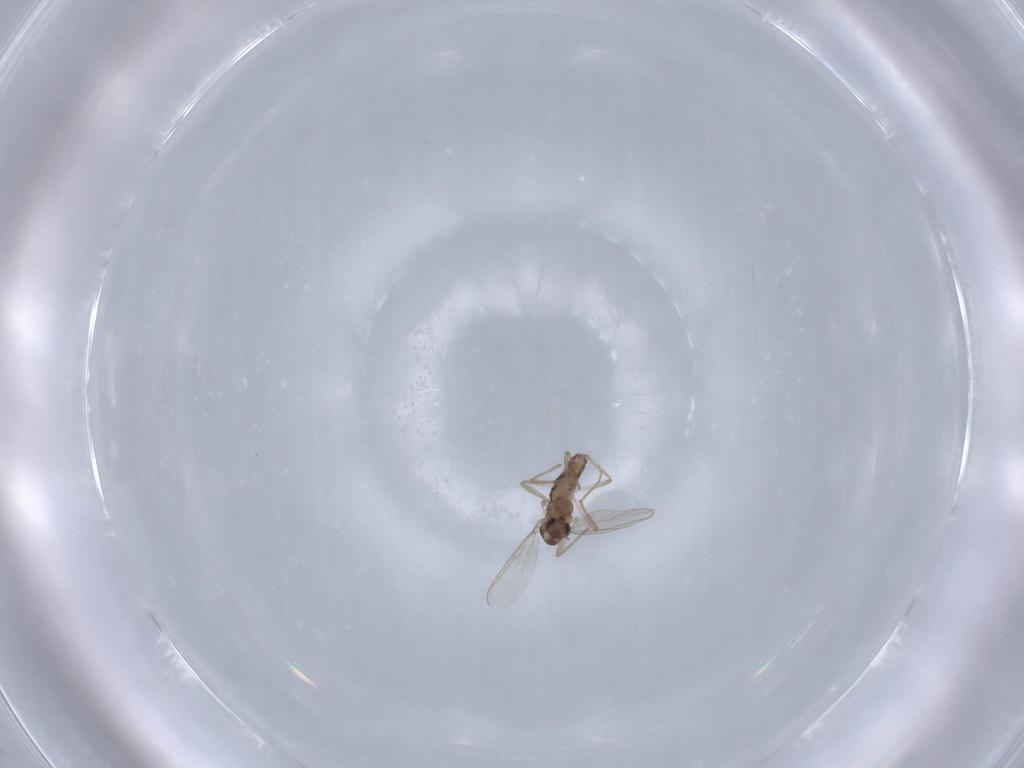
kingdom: Animalia
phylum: Arthropoda
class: Insecta
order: Diptera
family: Chironomidae
